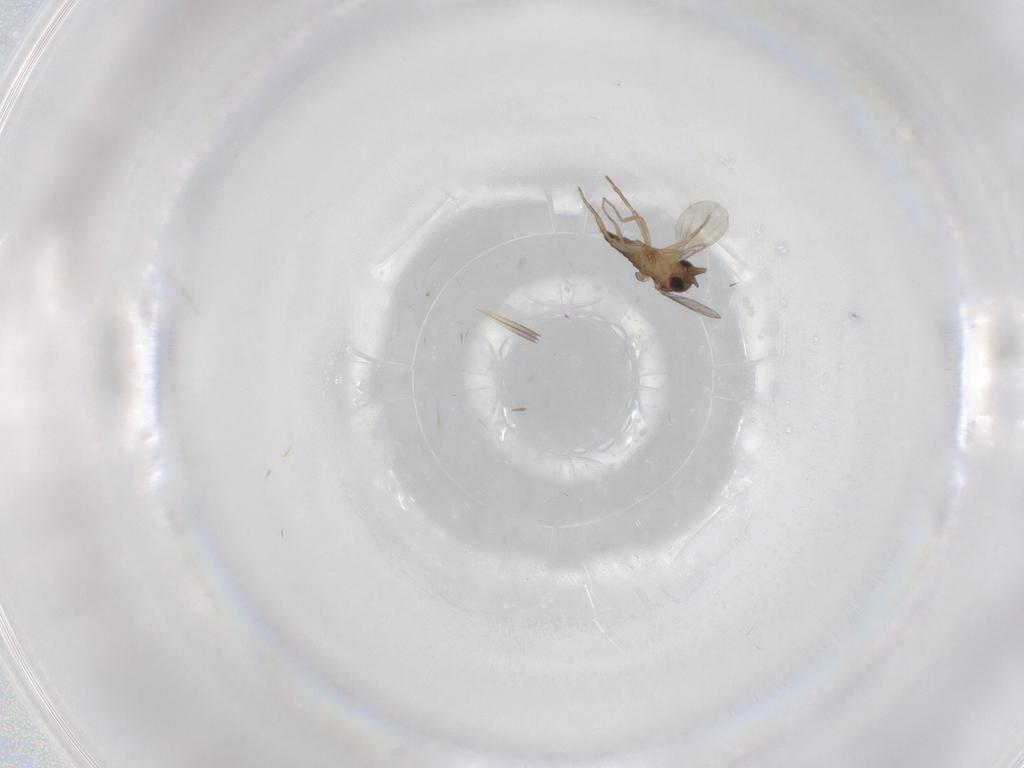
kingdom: Animalia
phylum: Arthropoda
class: Insecta
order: Diptera
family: Phoridae
